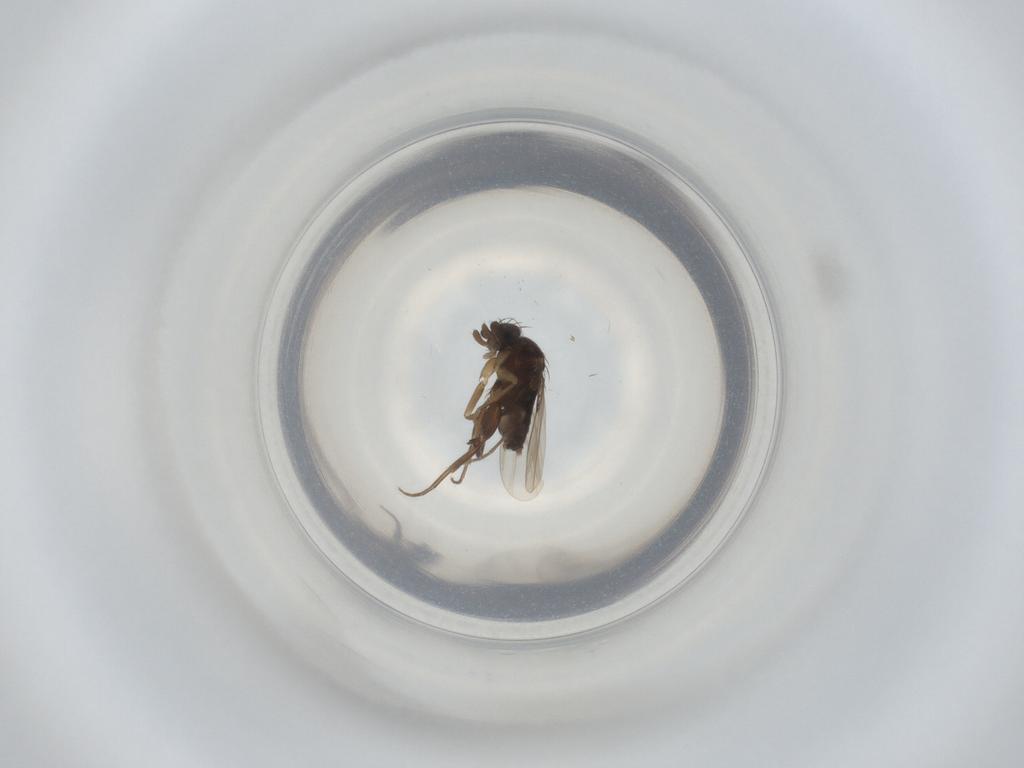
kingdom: Animalia
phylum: Arthropoda
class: Insecta
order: Diptera
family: Phoridae
